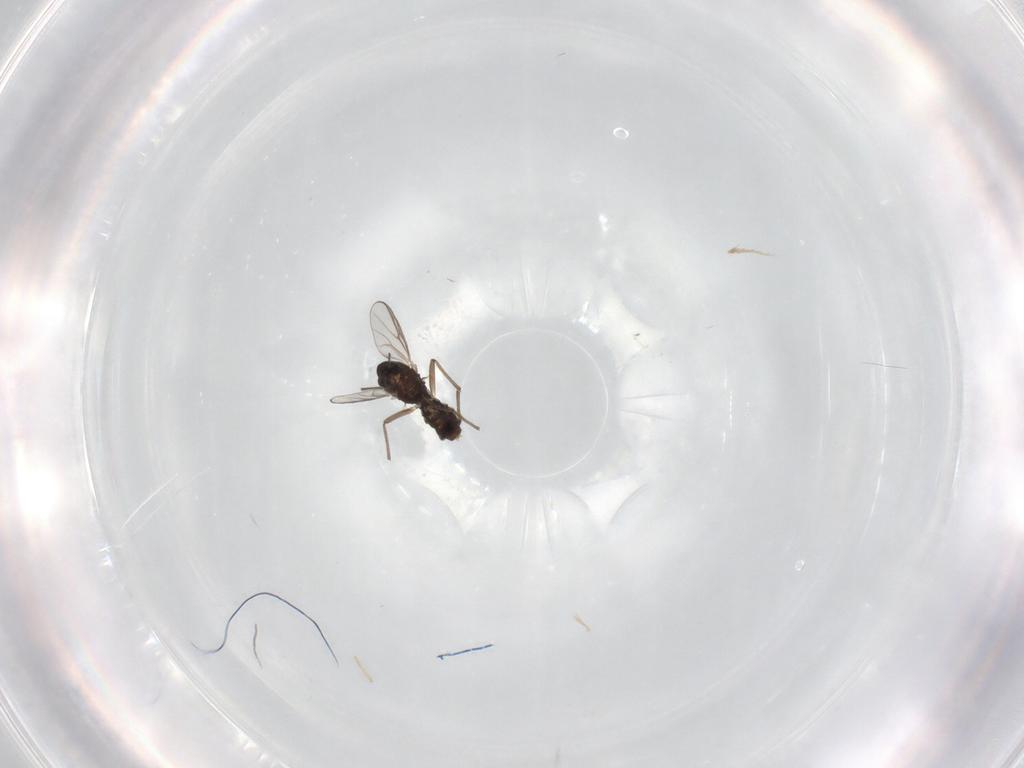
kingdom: Animalia
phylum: Arthropoda
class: Insecta
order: Diptera
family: Chironomidae
